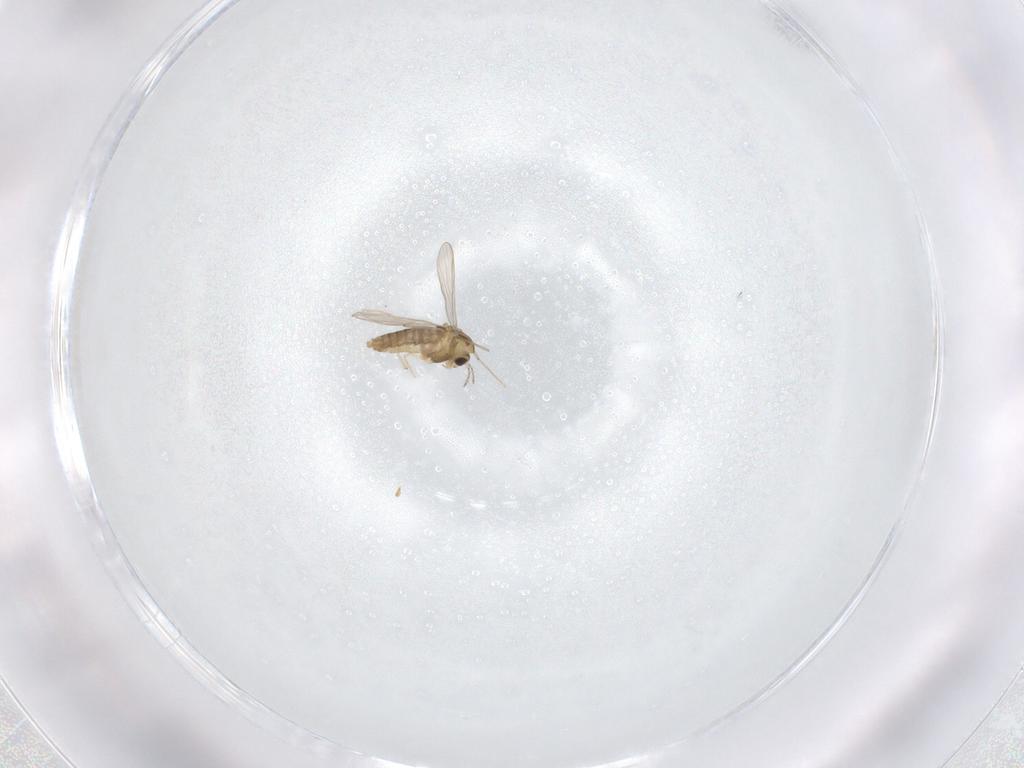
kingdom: Animalia
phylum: Arthropoda
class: Insecta
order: Diptera
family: Chironomidae
